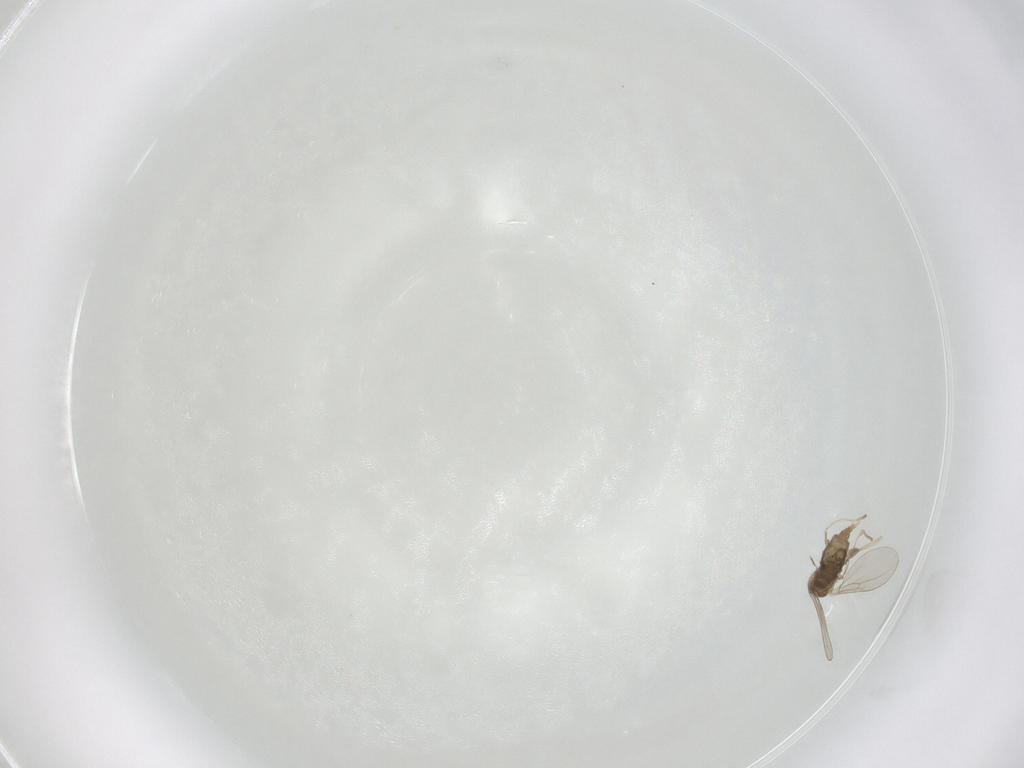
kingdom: Animalia
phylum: Arthropoda
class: Insecta
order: Diptera
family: Cecidomyiidae
